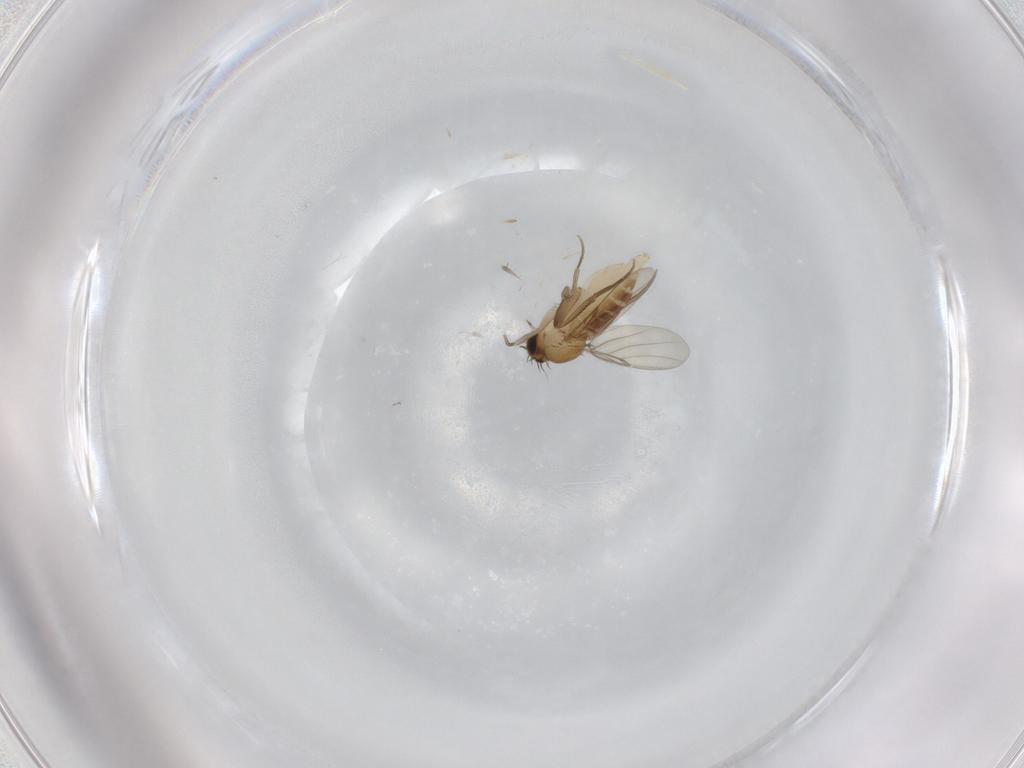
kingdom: Animalia
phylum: Arthropoda
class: Insecta
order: Diptera
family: Phoridae
